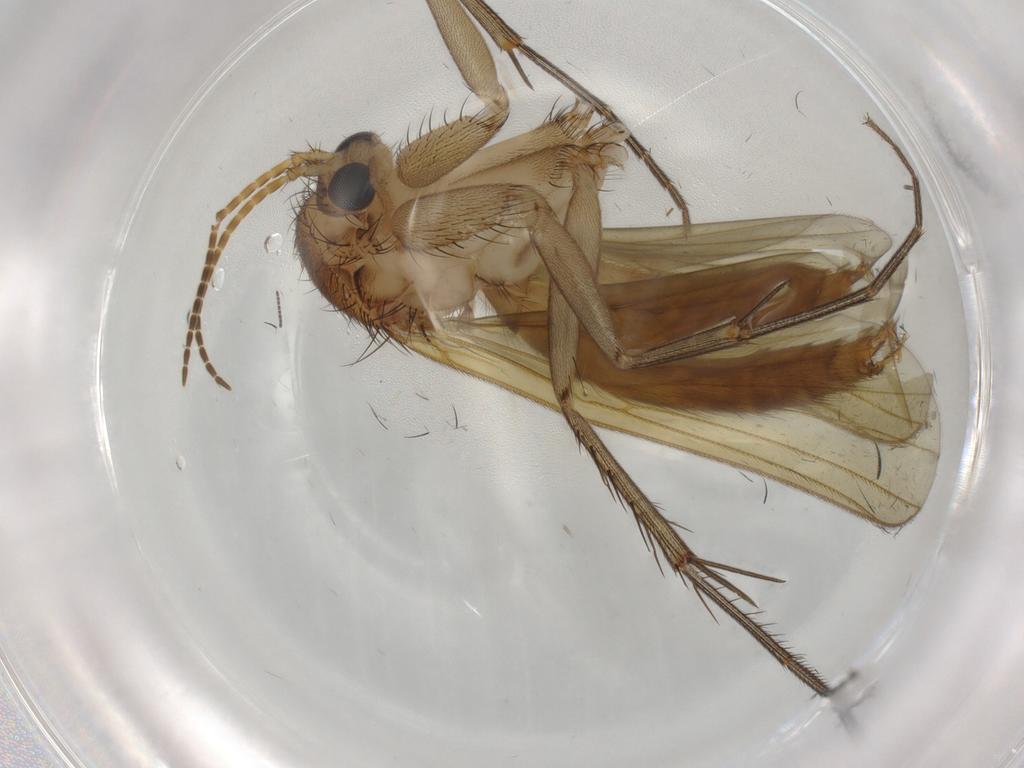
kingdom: Animalia
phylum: Arthropoda
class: Insecta
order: Diptera
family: Mycetophilidae
